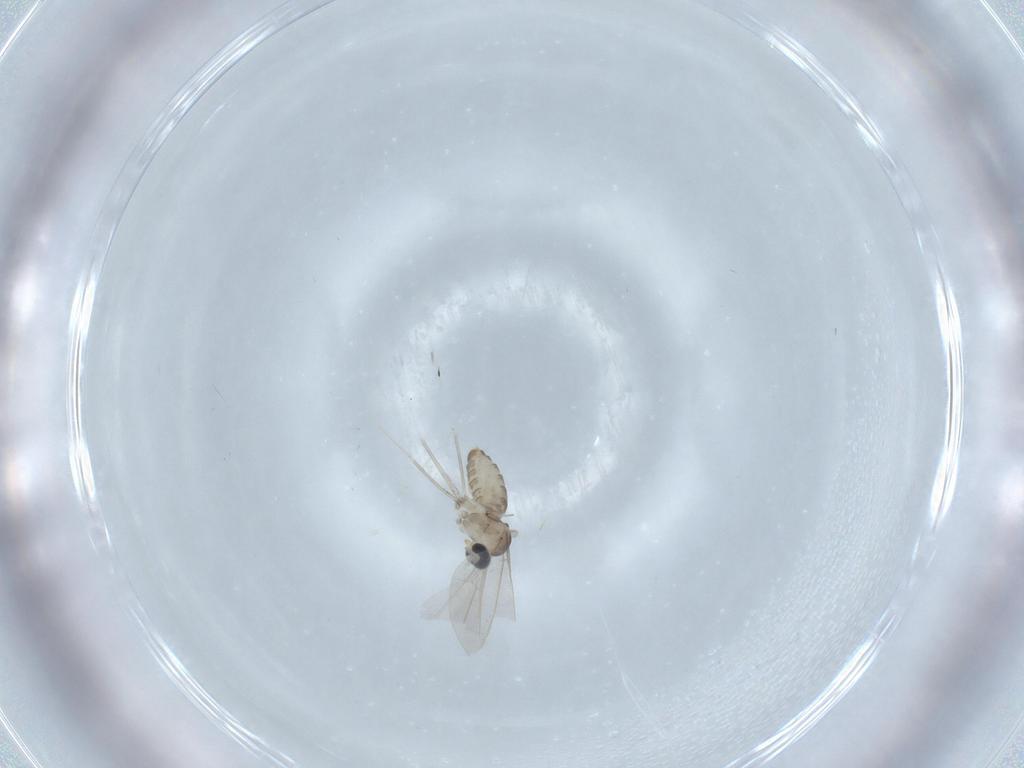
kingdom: Animalia
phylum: Arthropoda
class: Insecta
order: Diptera
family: Cecidomyiidae
